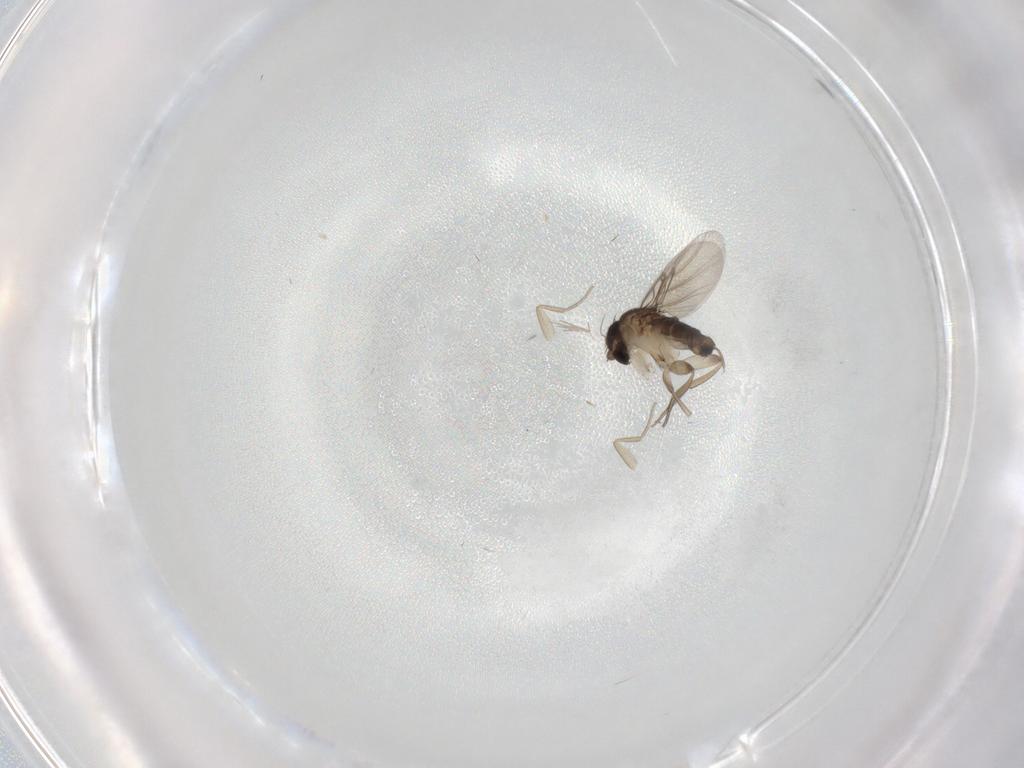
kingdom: Animalia
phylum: Arthropoda
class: Insecta
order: Diptera
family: Phoridae
